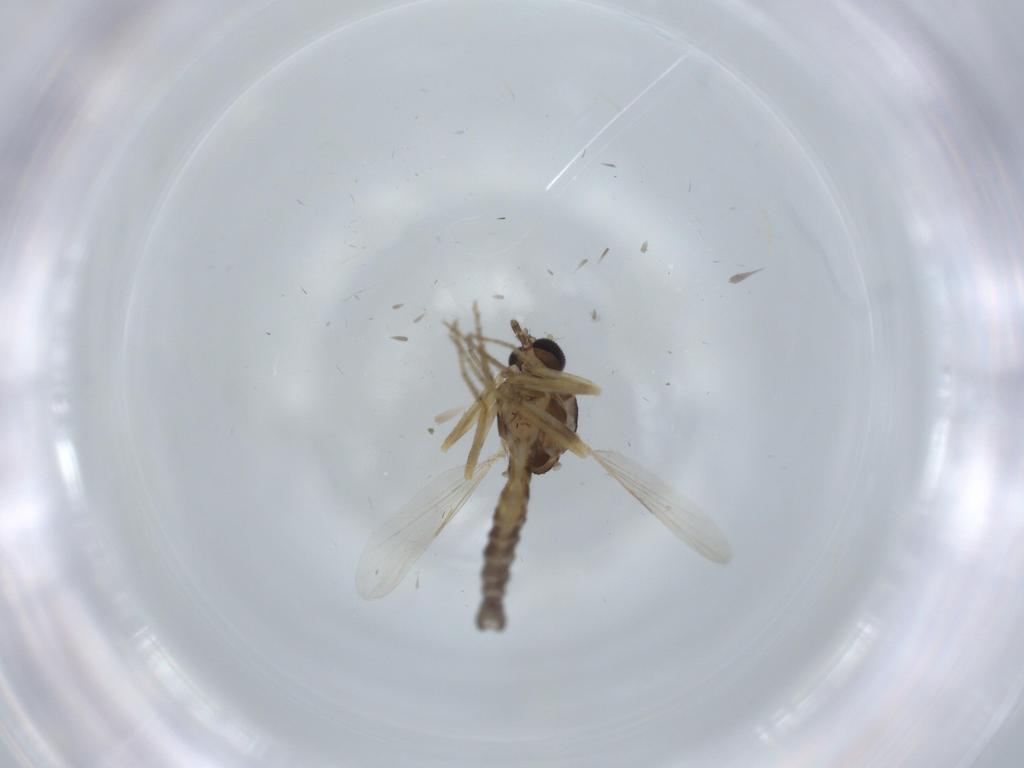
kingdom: Animalia
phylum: Arthropoda
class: Insecta
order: Diptera
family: Ceratopogonidae
